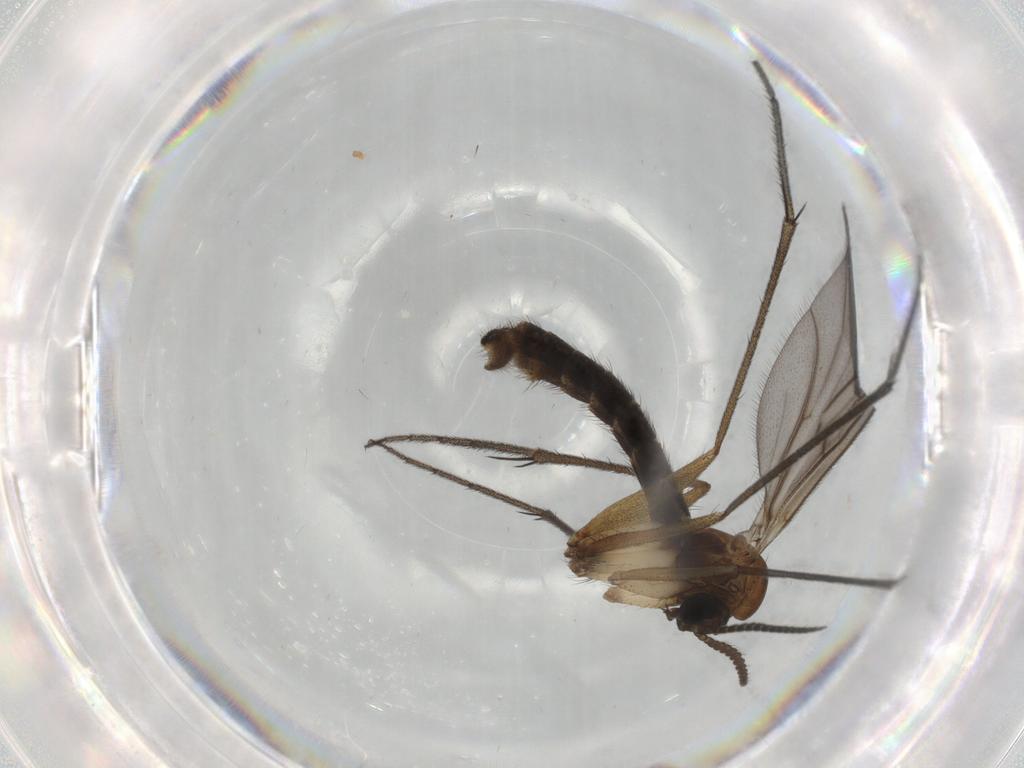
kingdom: Animalia
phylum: Arthropoda
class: Insecta
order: Diptera
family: Ditomyiidae
